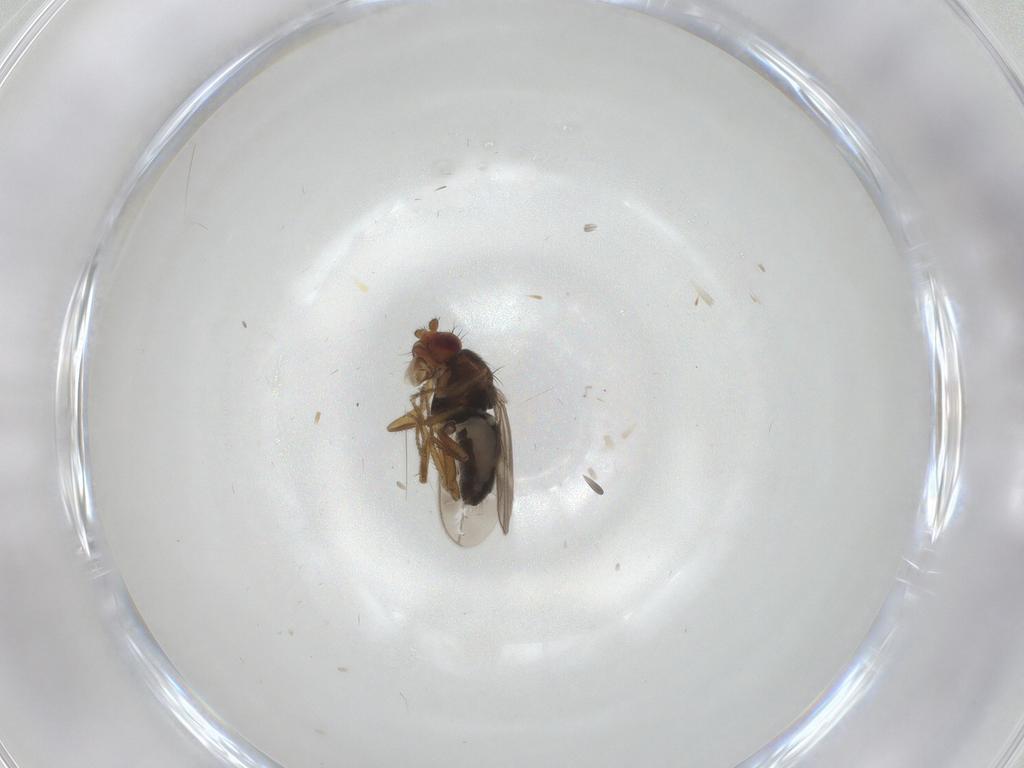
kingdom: Animalia
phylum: Arthropoda
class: Insecta
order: Diptera
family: Sphaeroceridae
